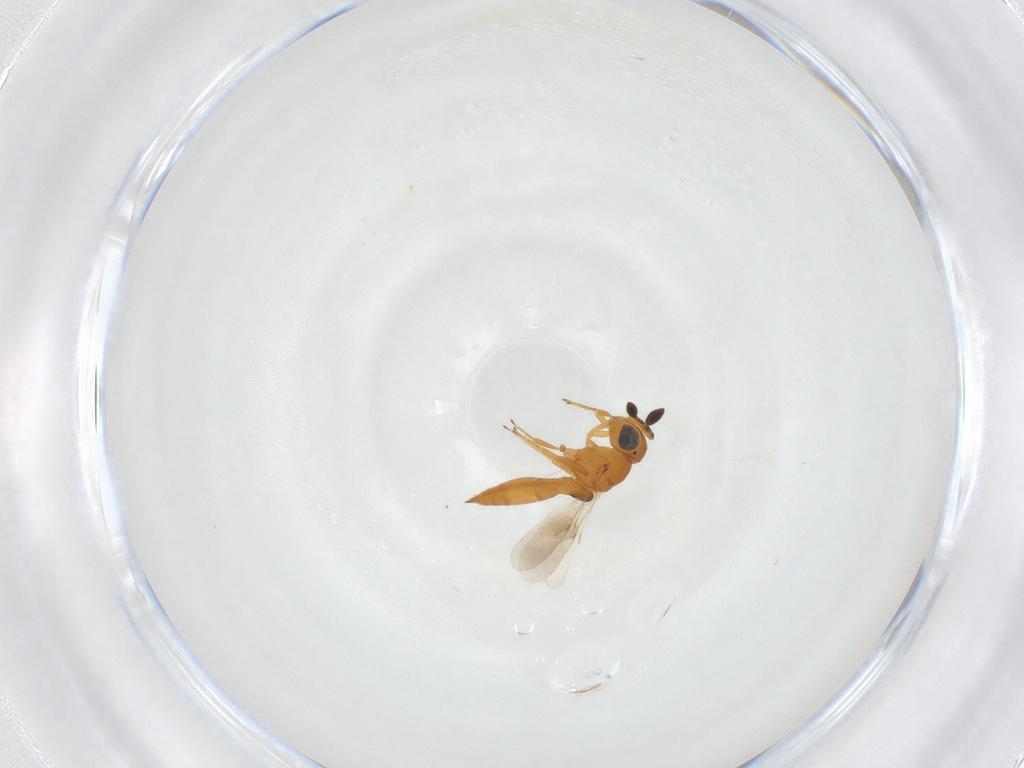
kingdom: Animalia
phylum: Arthropoda
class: Insecta
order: Hymenoptera
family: Scelionidae
